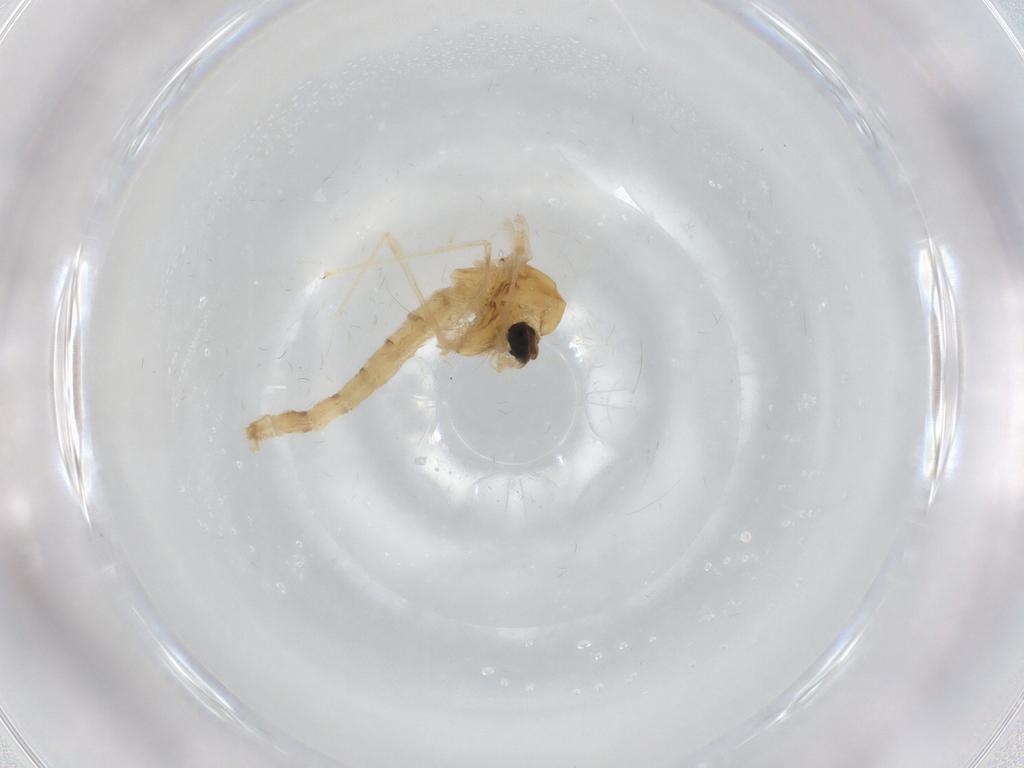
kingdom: Animalia
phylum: Arthropoda
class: Insecta
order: Diptera
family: Chironomidae
